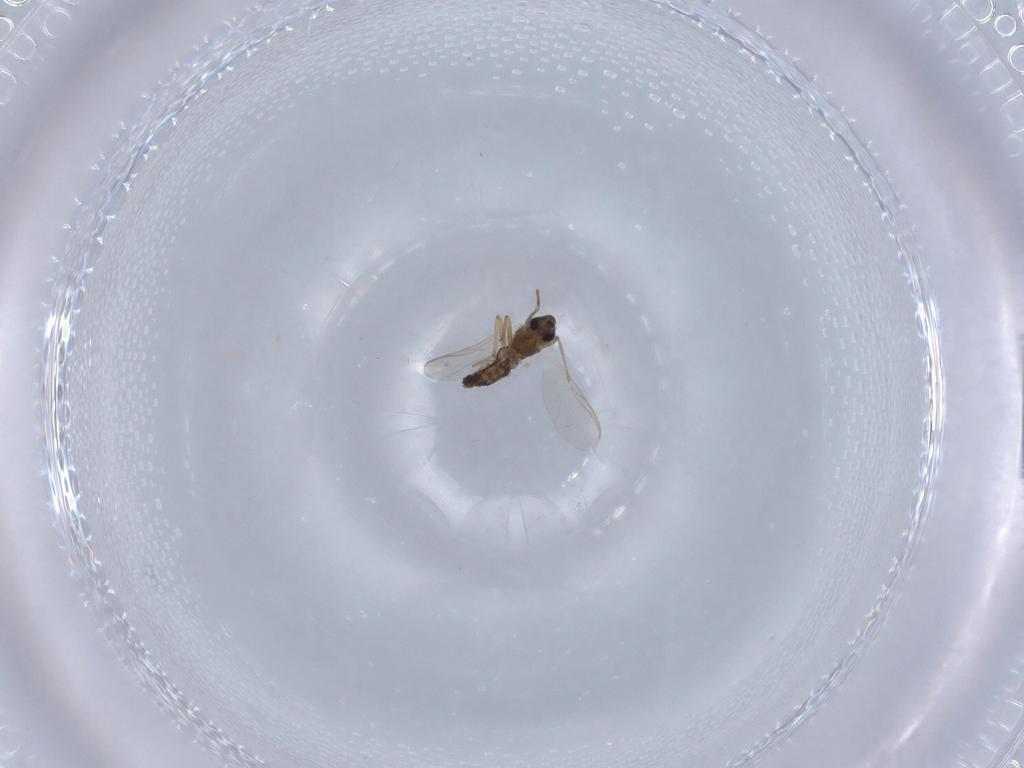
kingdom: Animalia
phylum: Arthropoda
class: Insecta
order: Diptera
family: Chironomidae
